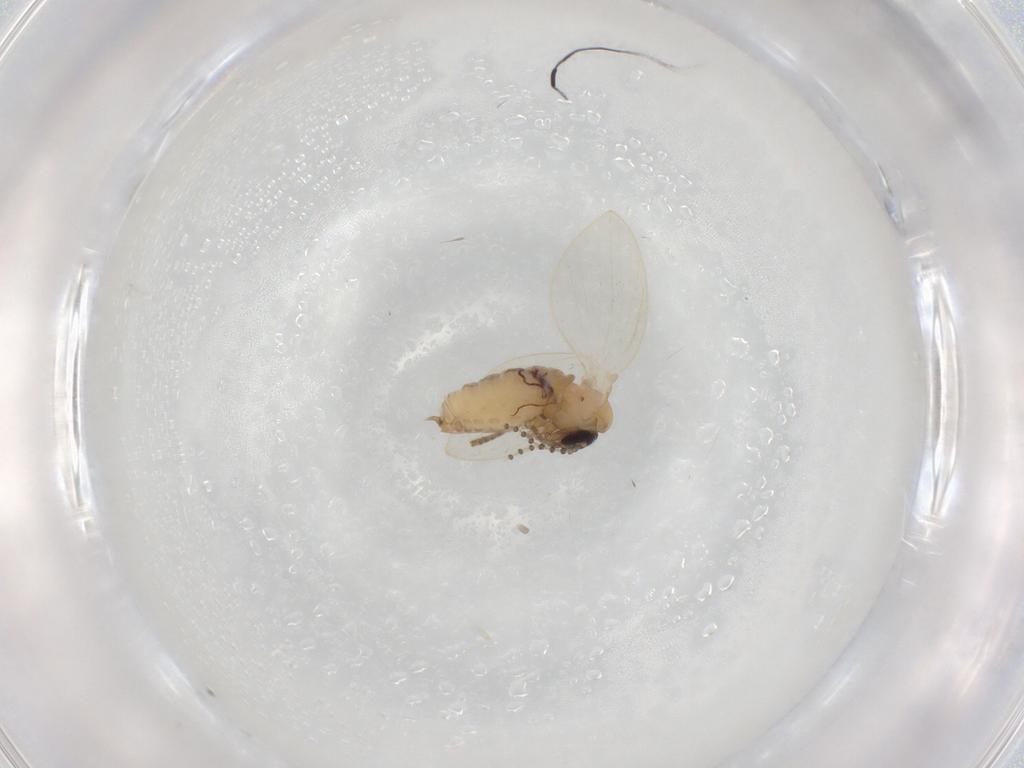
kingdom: Animalia
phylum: Arthropoda
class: Insecta
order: Diptera
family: Psychodidae
